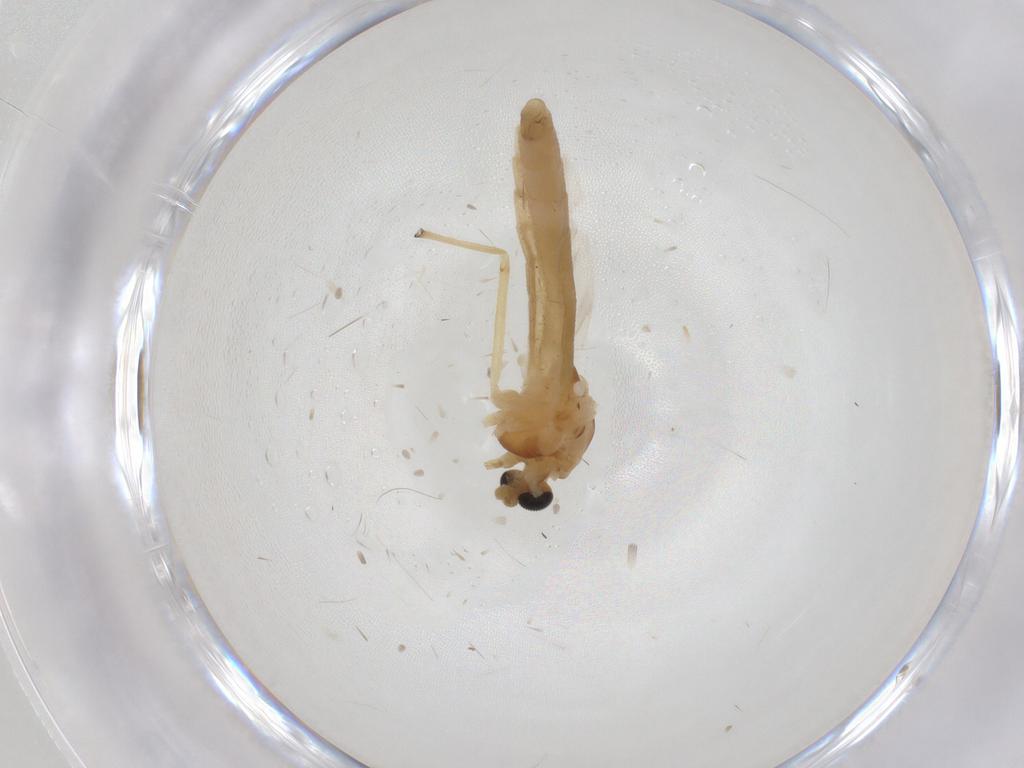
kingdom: Animalia
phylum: Arthropoda
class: Insecta
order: Diptera
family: Chironomidae
